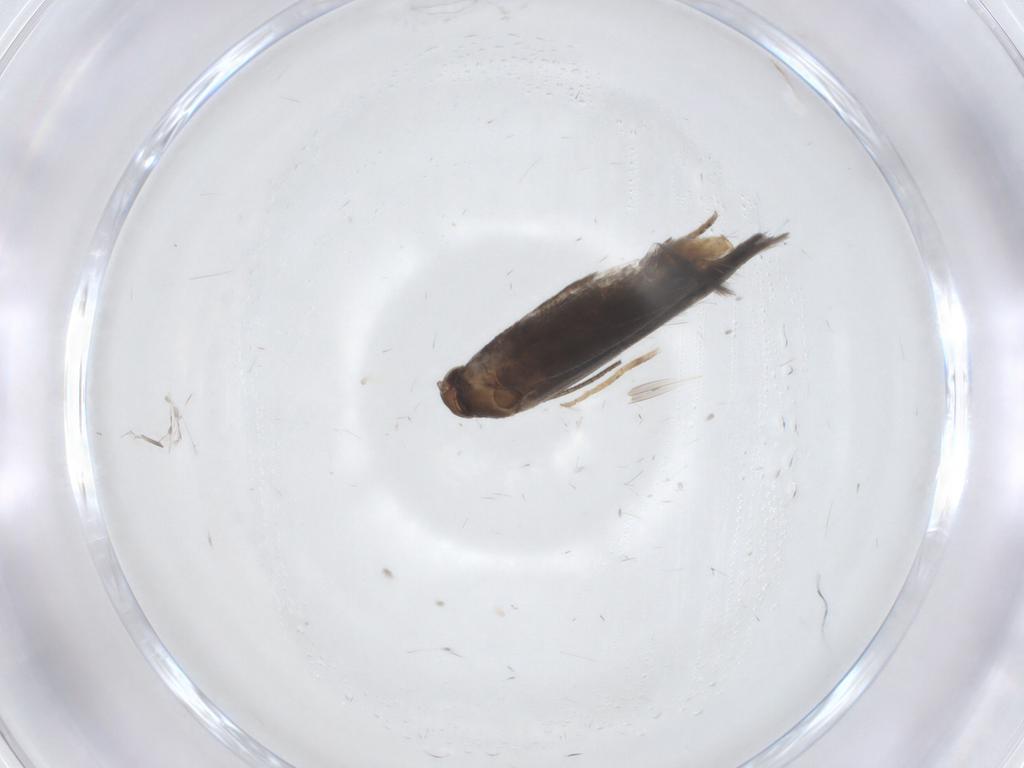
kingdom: Animalia
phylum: Arthropoda
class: Insecta
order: Lepidoptera
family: Elachistidae
